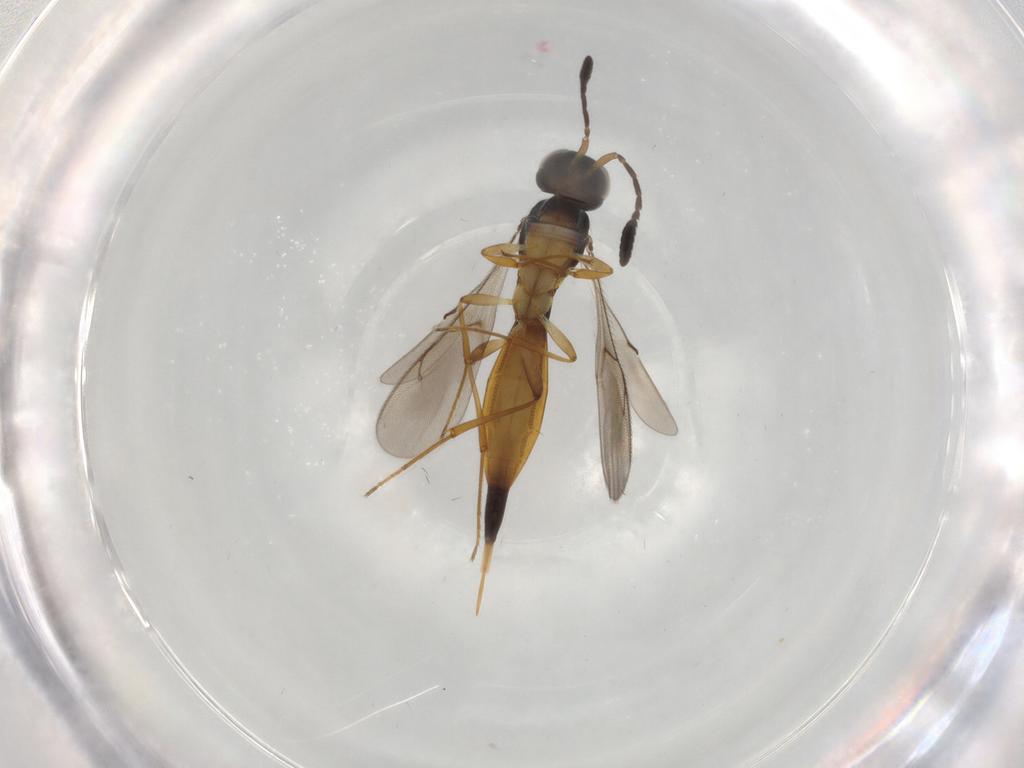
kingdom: Animalia
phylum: Arthropoda
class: Insecta
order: Hymenoptera
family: Scelionidae
